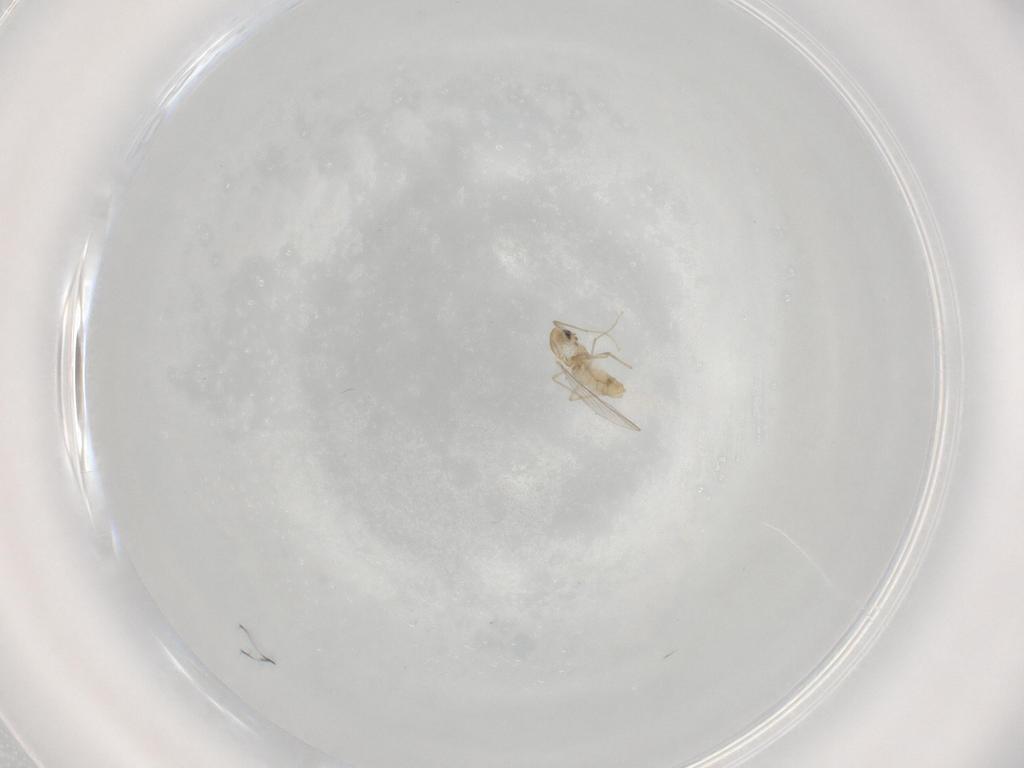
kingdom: Animalia
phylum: Arthropoda
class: Insecta
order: Diptera
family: Chironomidae
